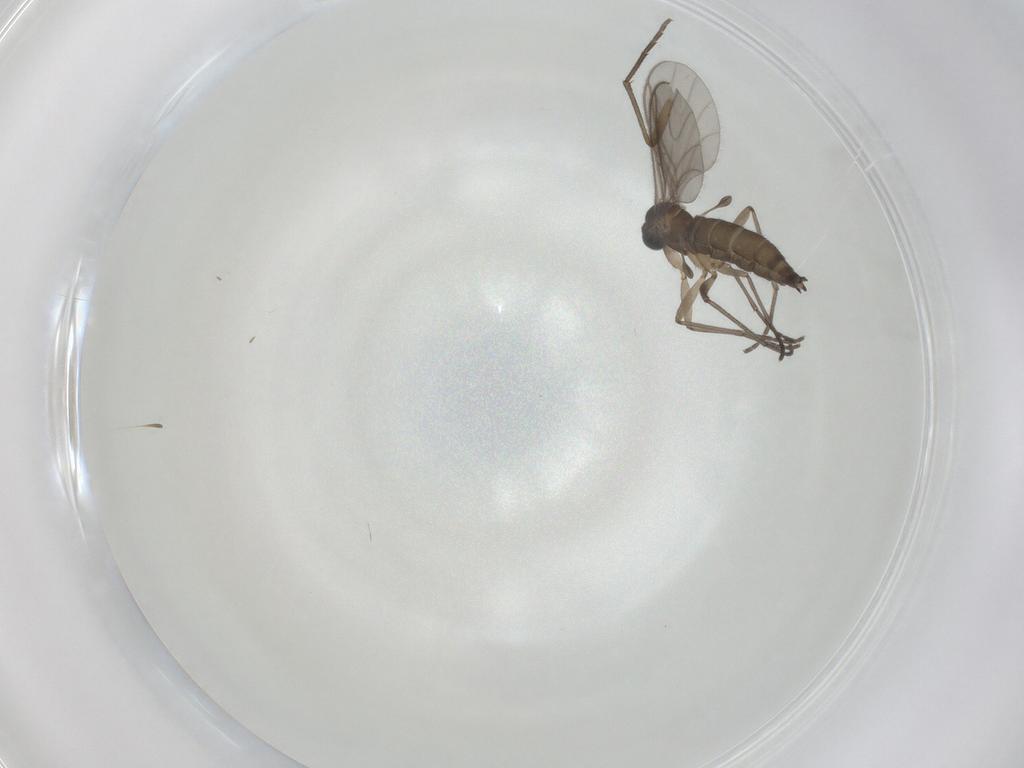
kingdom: Animalia
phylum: Arthropoda
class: Insecta
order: Diptera
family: Sciaridae
